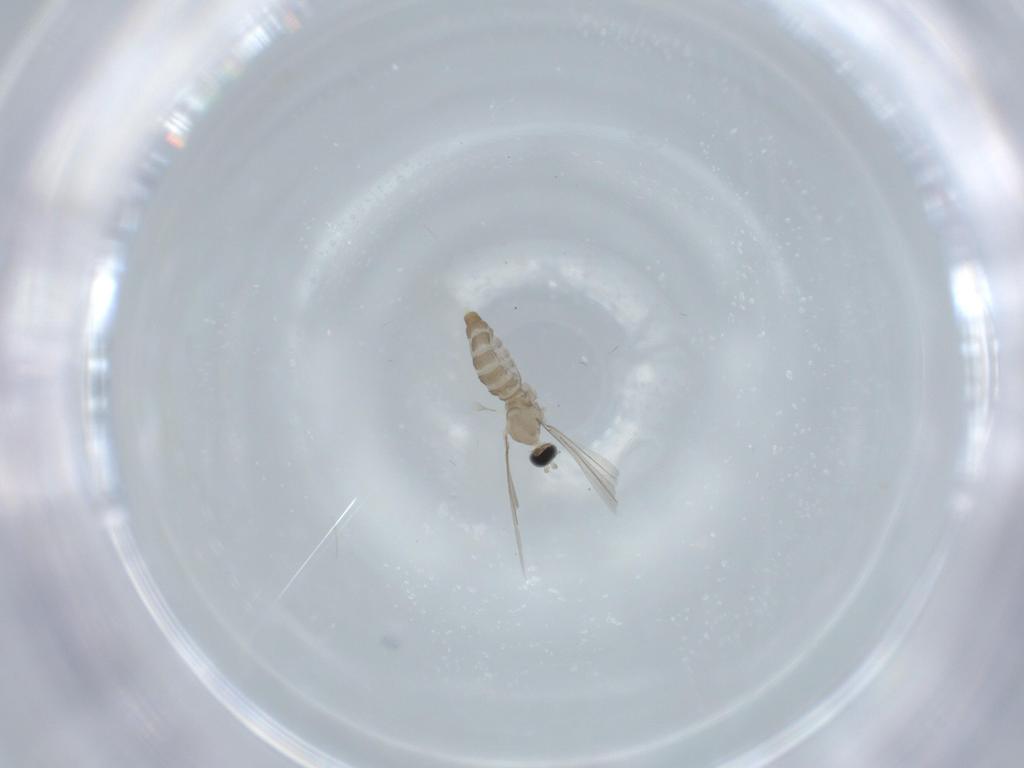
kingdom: Animalia
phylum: Arthropoda
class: Insecta
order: Diptera
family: Cecidomyiidae
